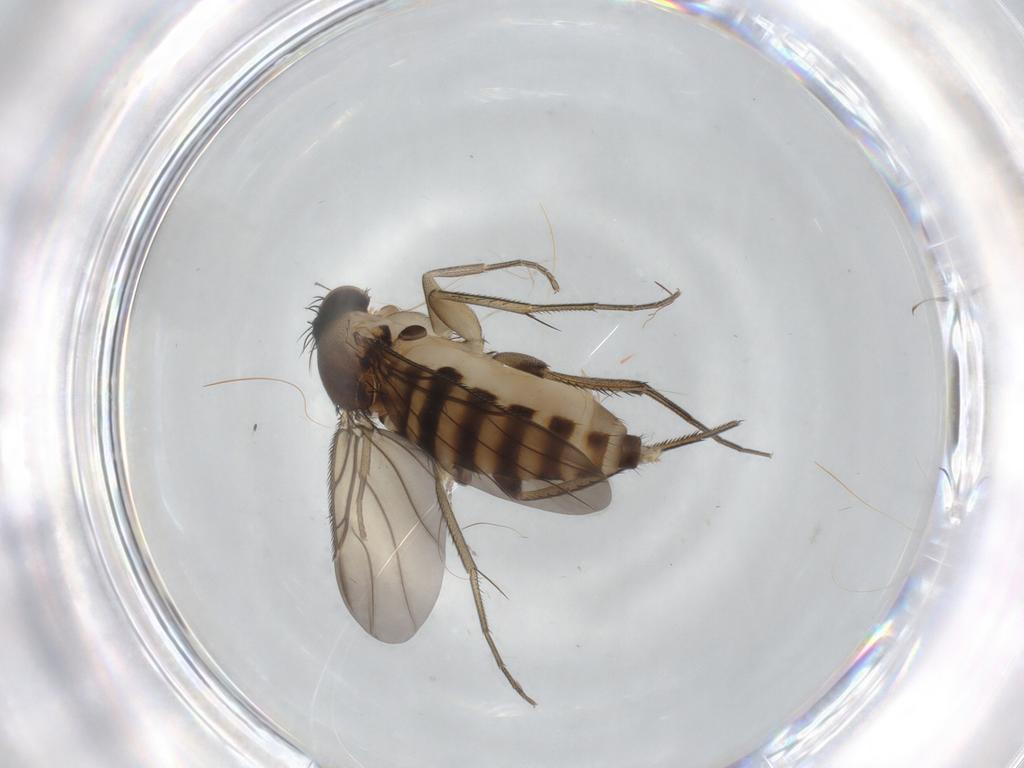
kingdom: Animalia
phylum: Arthropoda
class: Insecta
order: Diptera
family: Cecidomyiidae
